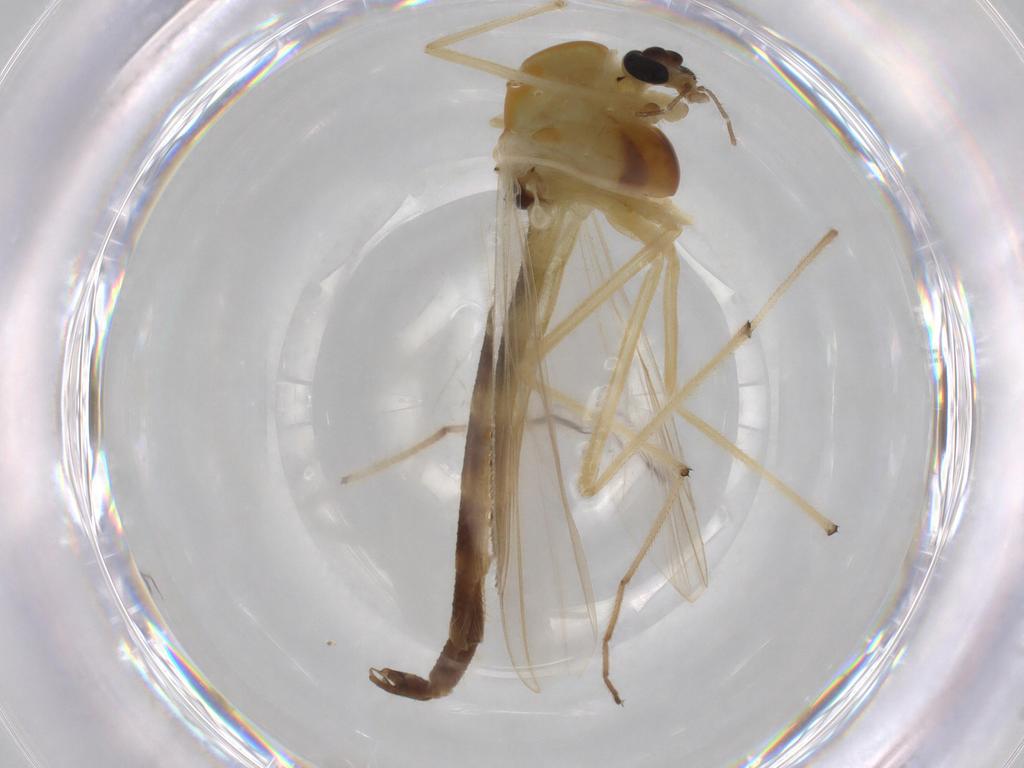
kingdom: Animalia
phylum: Arthropoda
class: Insecta
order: Diptera
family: Chironomidae
